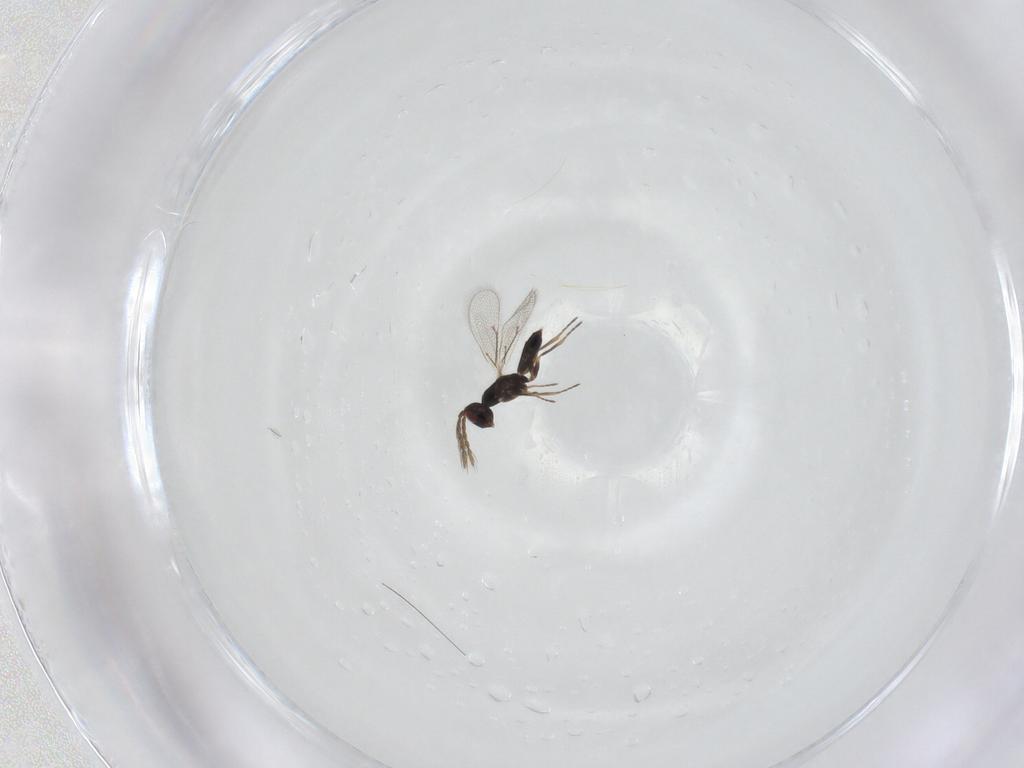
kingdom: Animalia
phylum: Arthropoda
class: Insecta
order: Hymenoptera
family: Eulophidae
